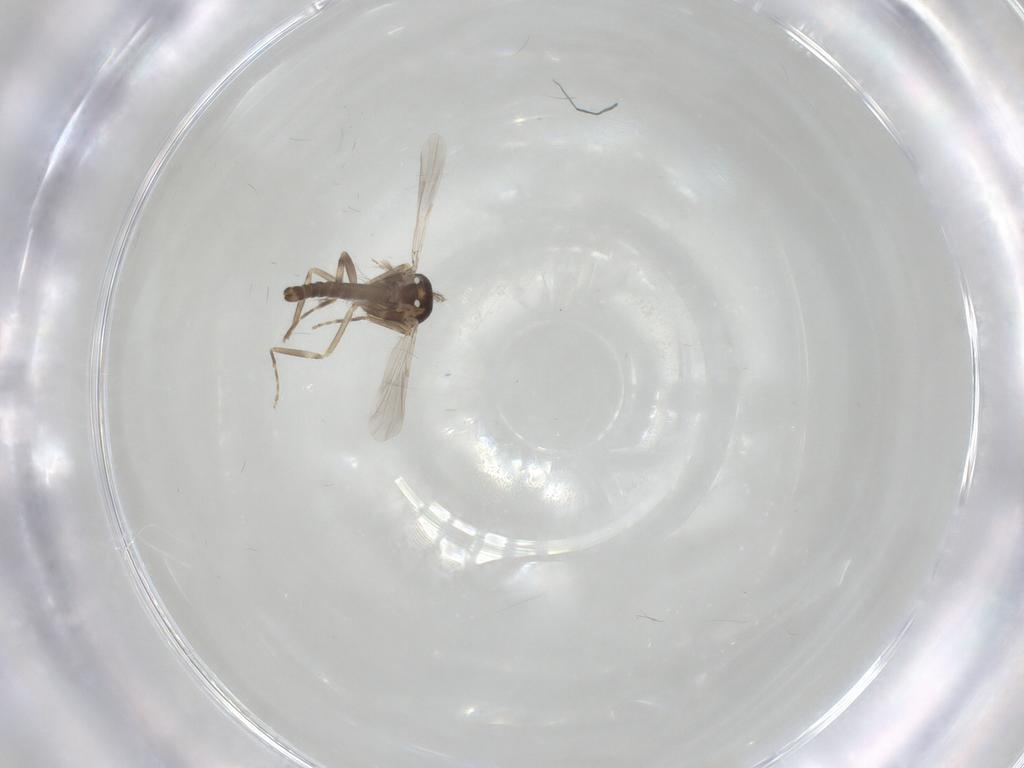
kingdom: Animalia
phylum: Arthropoda
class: Insecta
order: Diptera
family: Ceratopogonidae
